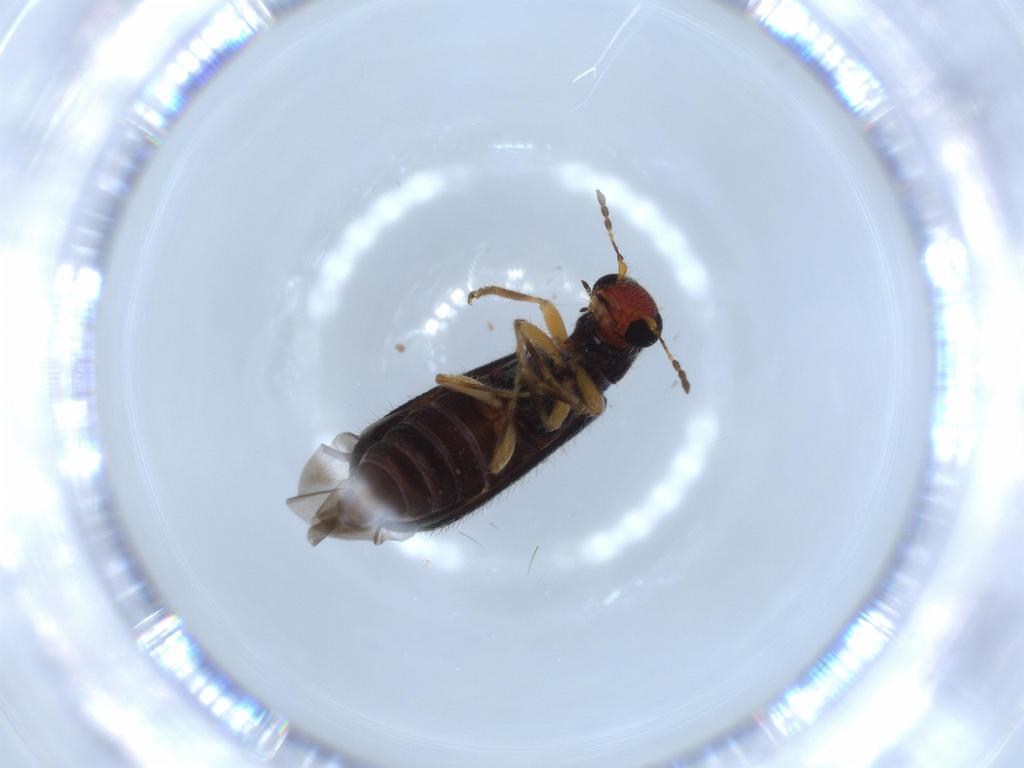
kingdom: Animalia
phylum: Arthropoda
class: Insecta
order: Coleoptera
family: Cleridae
